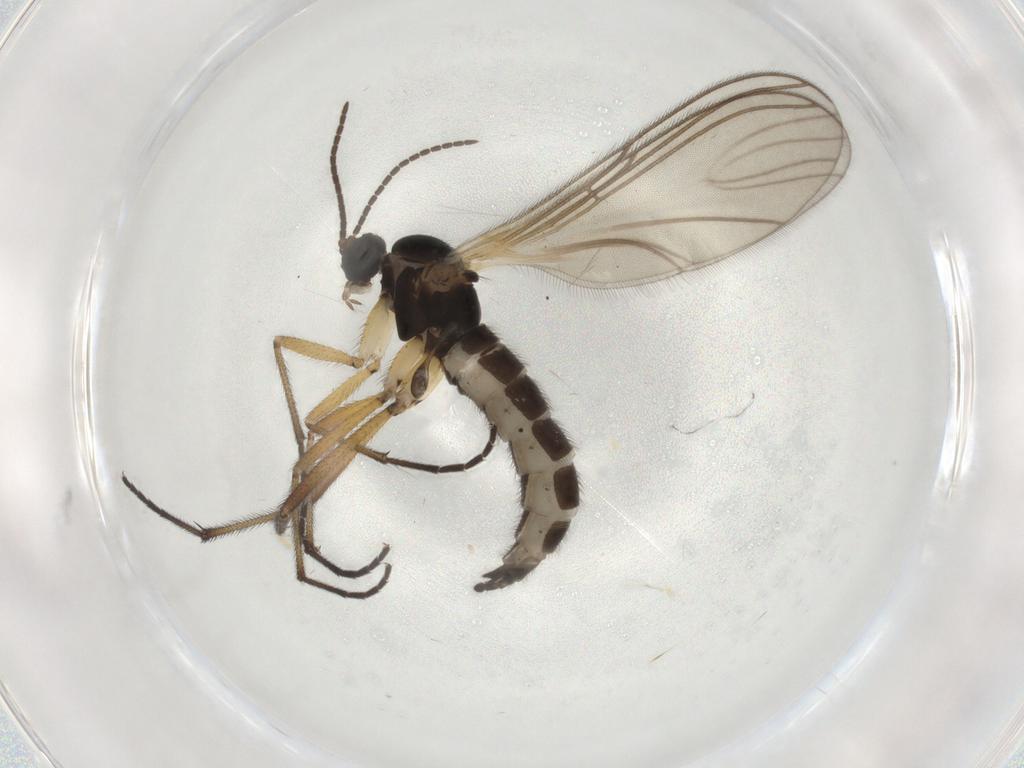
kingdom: Animalia
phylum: Arthropoda
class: Insecta
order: Diptera
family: Sciaridae
